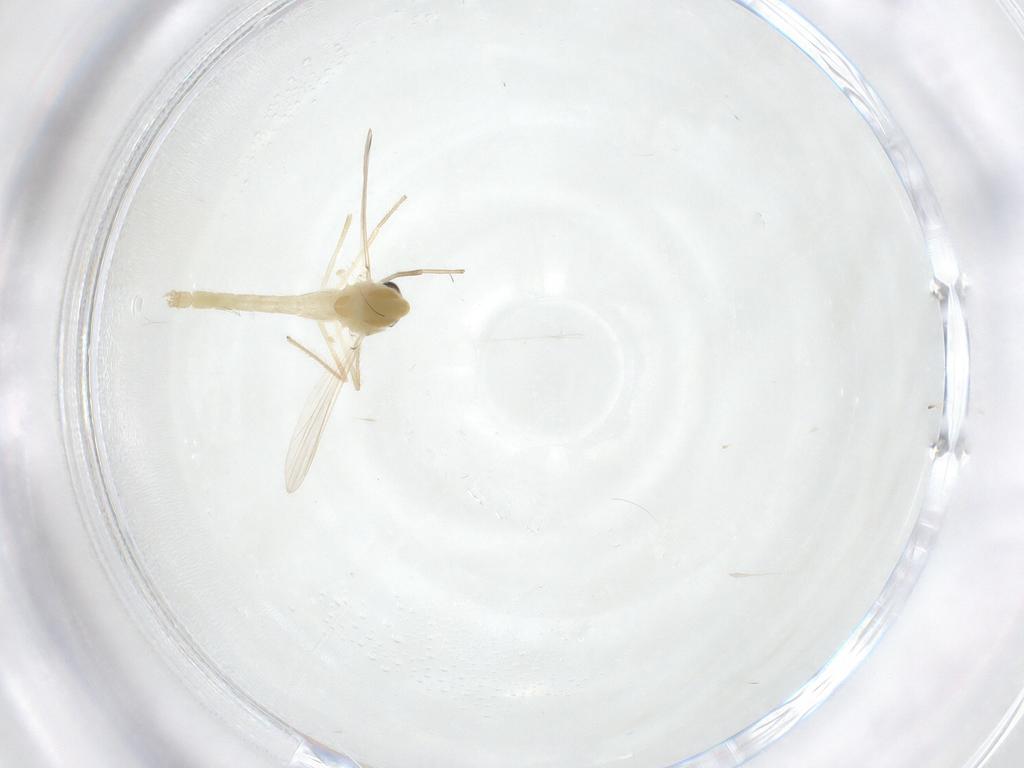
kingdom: Animalia
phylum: Arthropoda
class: Insecta
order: Diptera
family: Chironomidae
